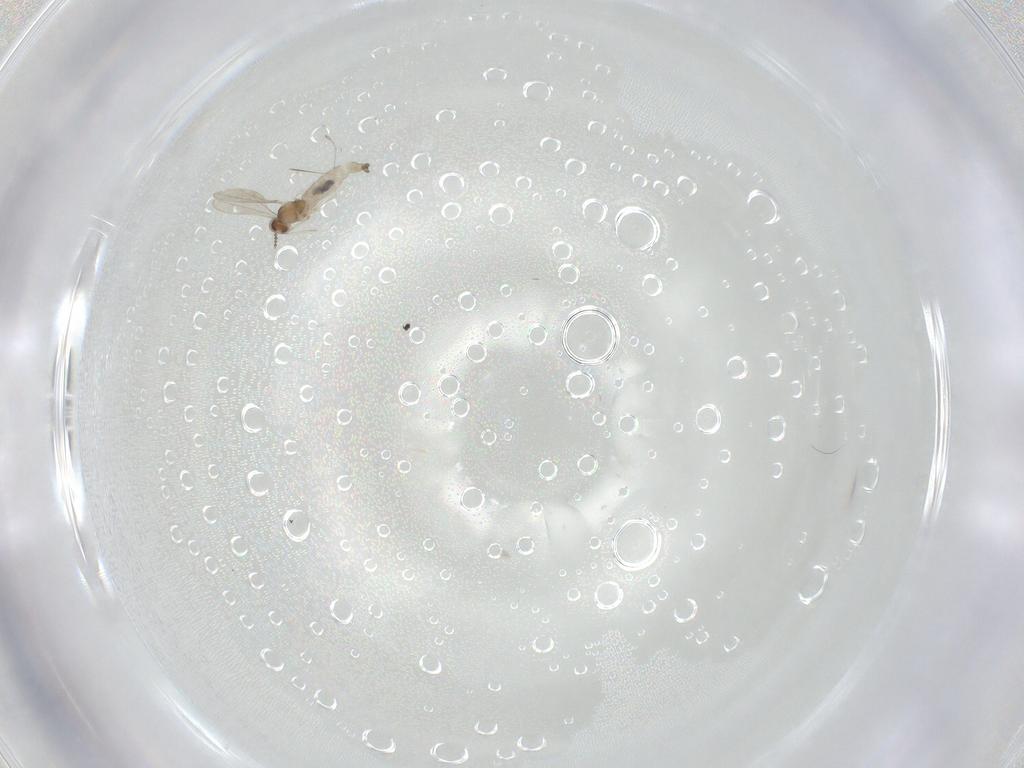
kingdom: Animalia
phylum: Arthropoda
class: Insecta
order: Diptera
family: Cecidomyiidae
